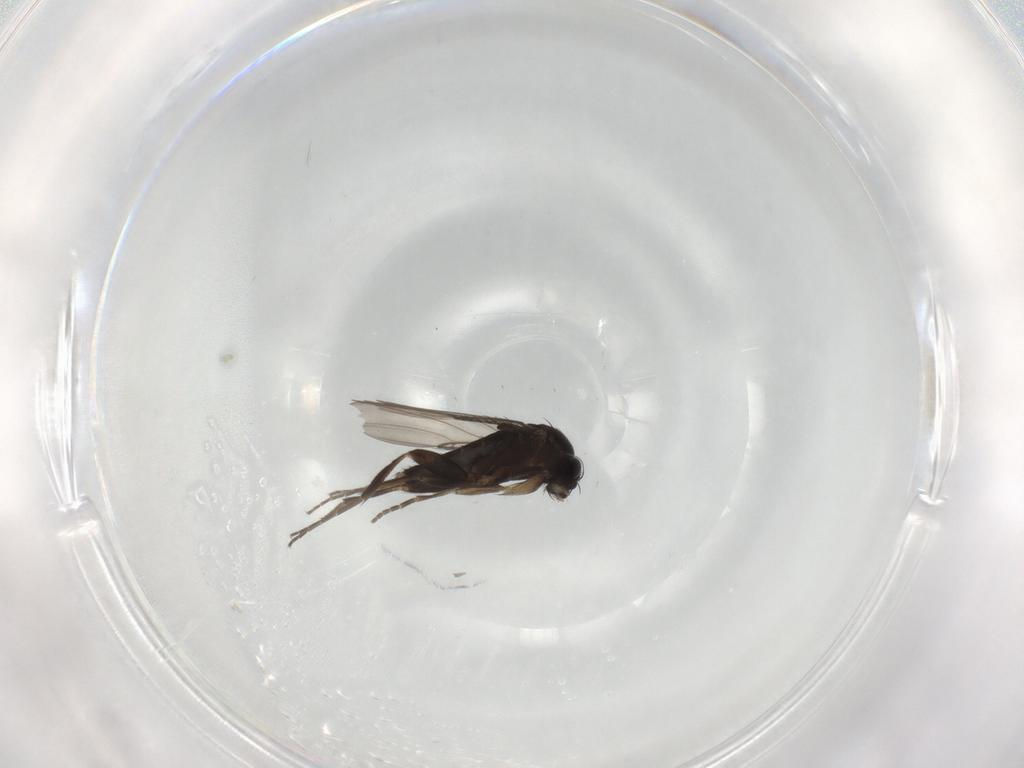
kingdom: Animalia
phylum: Arthropoda
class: Insecta
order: Diptera
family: Phoridae
